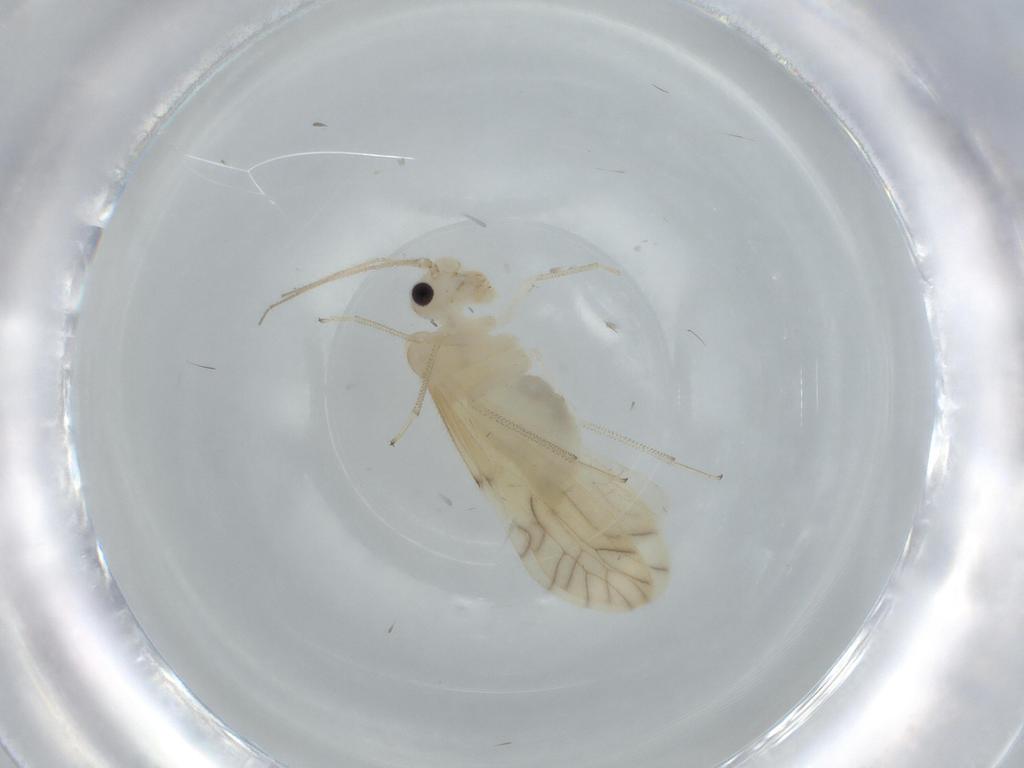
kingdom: Animalia
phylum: Arthropoda
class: Insecta
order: Psocodea
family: Caeciliusidae
